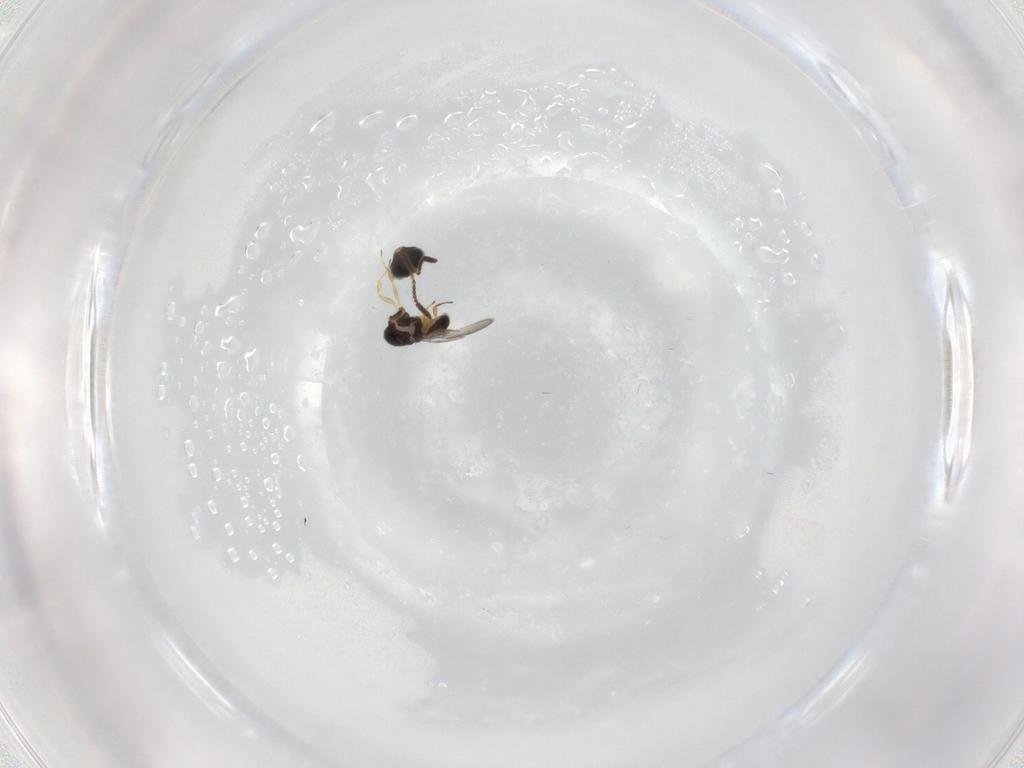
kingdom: Animalia
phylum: Arthropoda
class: Insecta
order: Hymenoptera
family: Scelionidae
